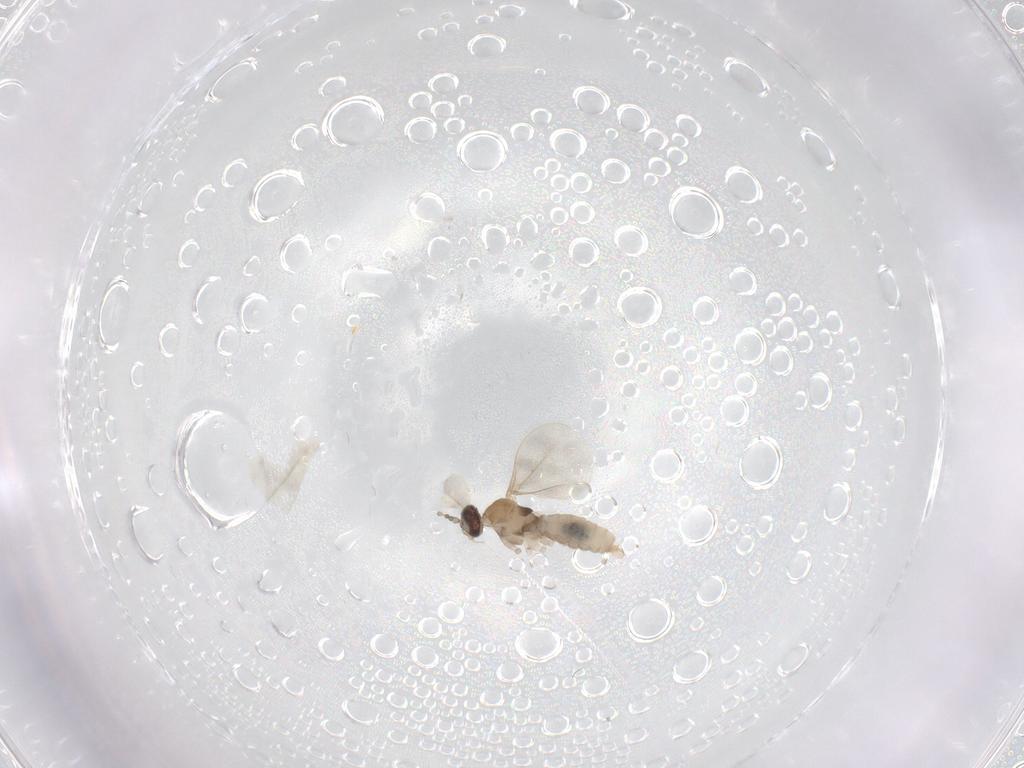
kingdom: Animalia
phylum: Arthropoda
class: Insecta
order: Diptera
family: Cecidomyiidae
